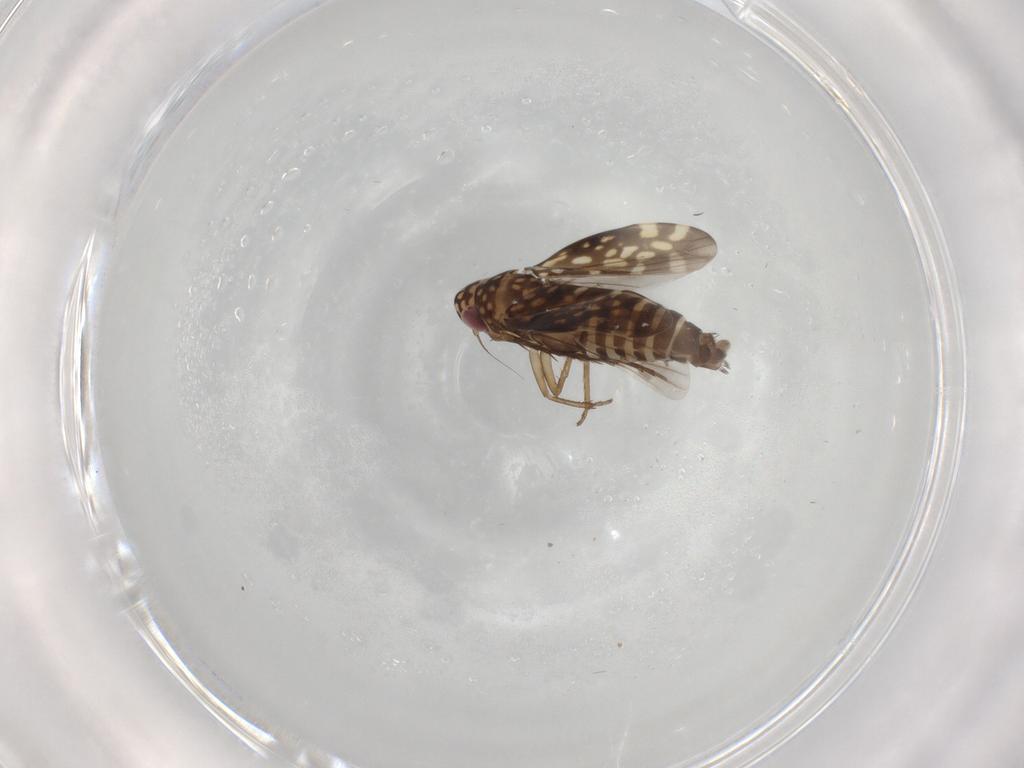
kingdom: Animalia
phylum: Arthropoda
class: Insecta
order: Hemiptera
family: Cicadellidae
